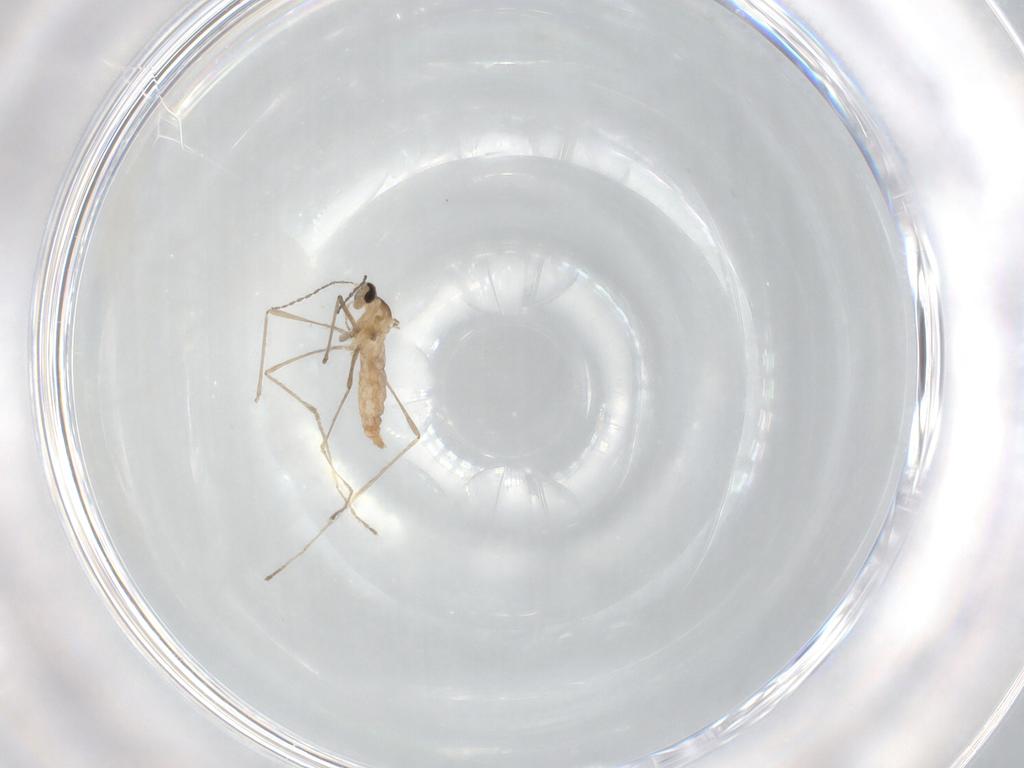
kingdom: Animalia
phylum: Arthropoda
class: Insecta
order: Diptera
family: Cecidomyiidae
